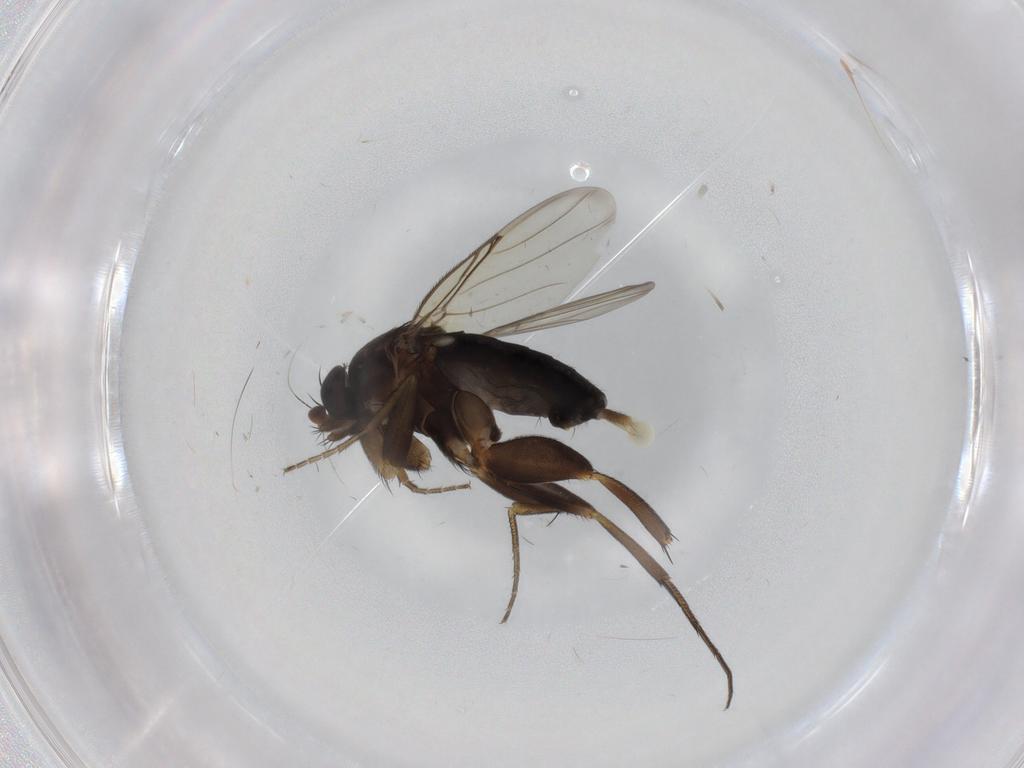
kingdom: Animalia
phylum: Arthropoda
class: Insecta
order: Diptera
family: Phoridae
